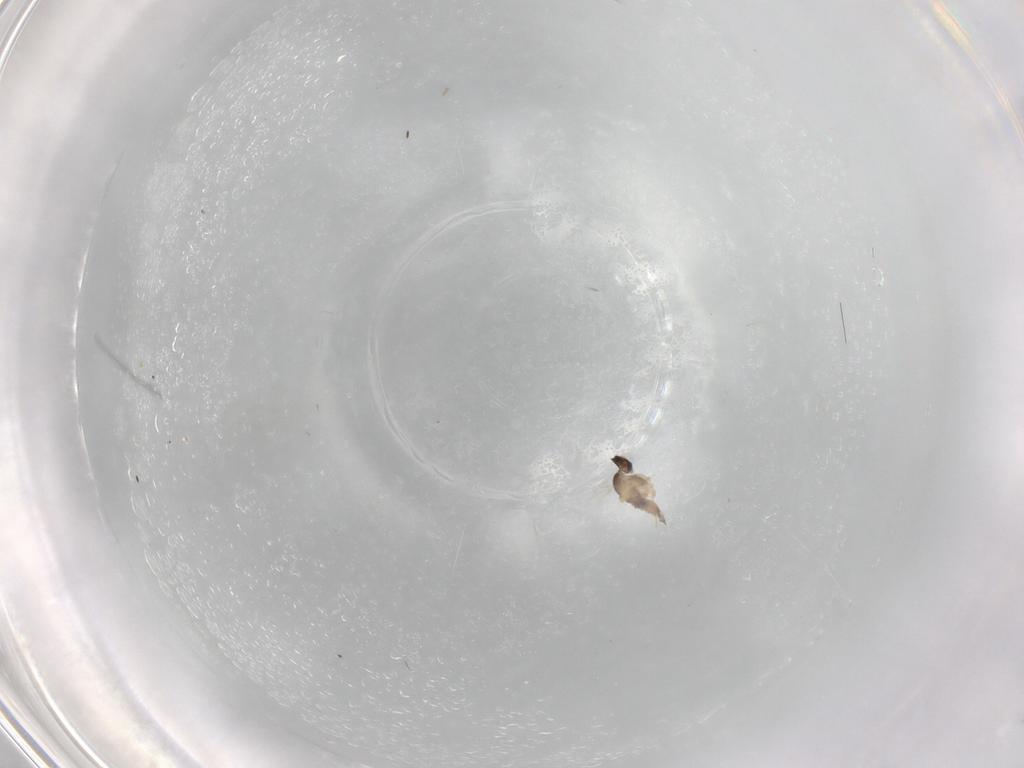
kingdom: Animalia
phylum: Arthropoda
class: Insecta
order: Diptera
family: Cecidomyiidae
